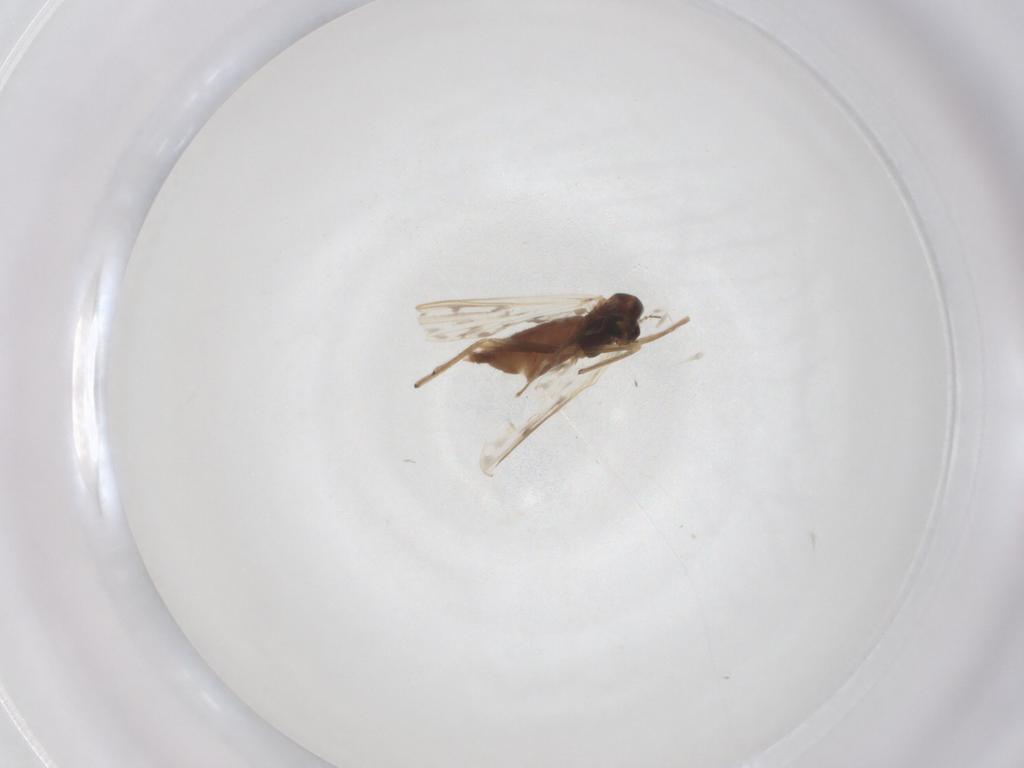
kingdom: Animalia
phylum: Arthropoda
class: Insecta
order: Diptera
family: Chironomidae
